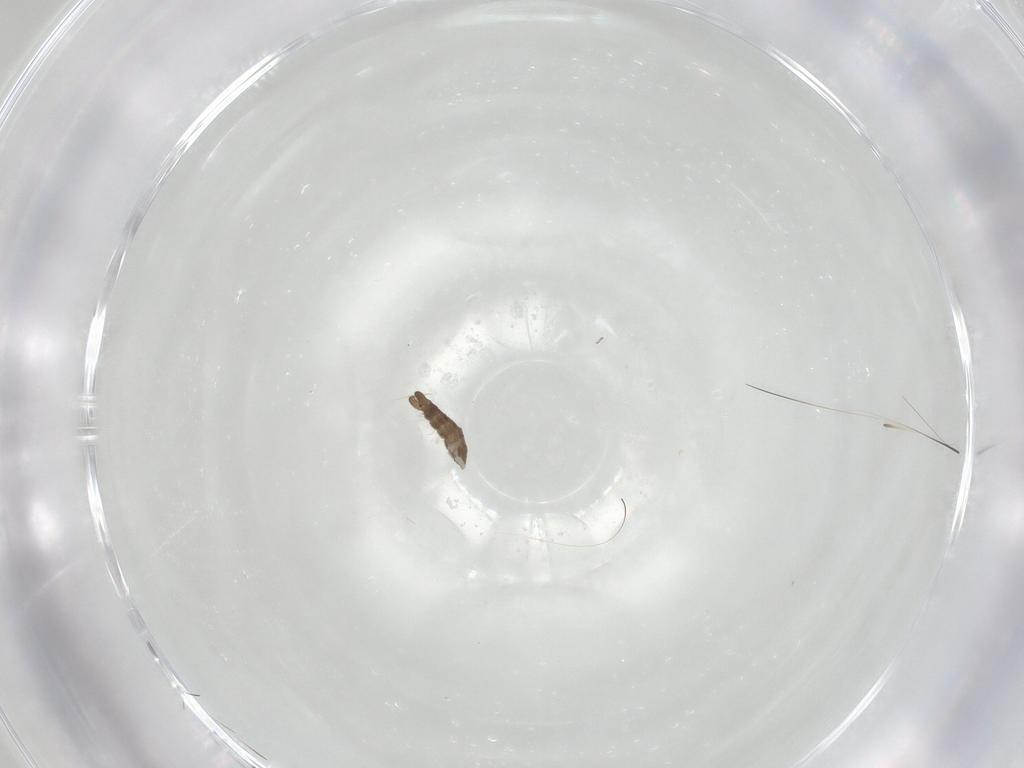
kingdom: Animalia
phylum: Arthropoda
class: Insecta
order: Diptera
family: Ceratopogonidae
